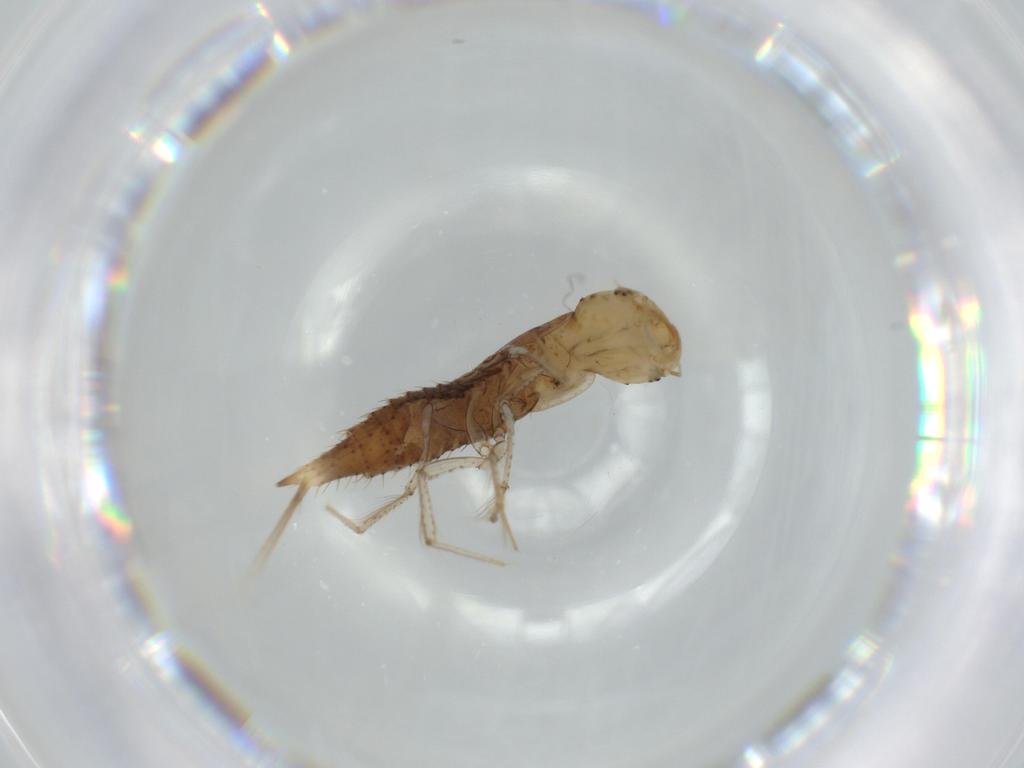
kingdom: Animalia
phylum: Arthropoda
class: Insecta
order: Coleoptera
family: Dytiscidae
